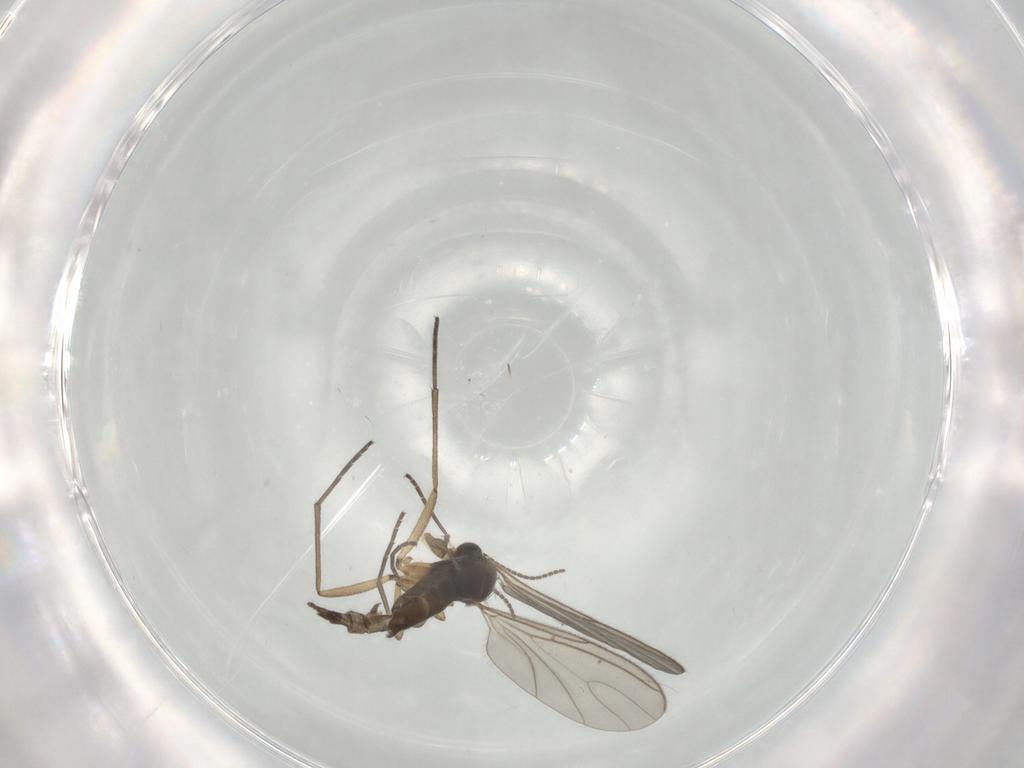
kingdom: Animalia
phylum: Arthropoda
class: Insecta
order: Diptera
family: Sciaridae
